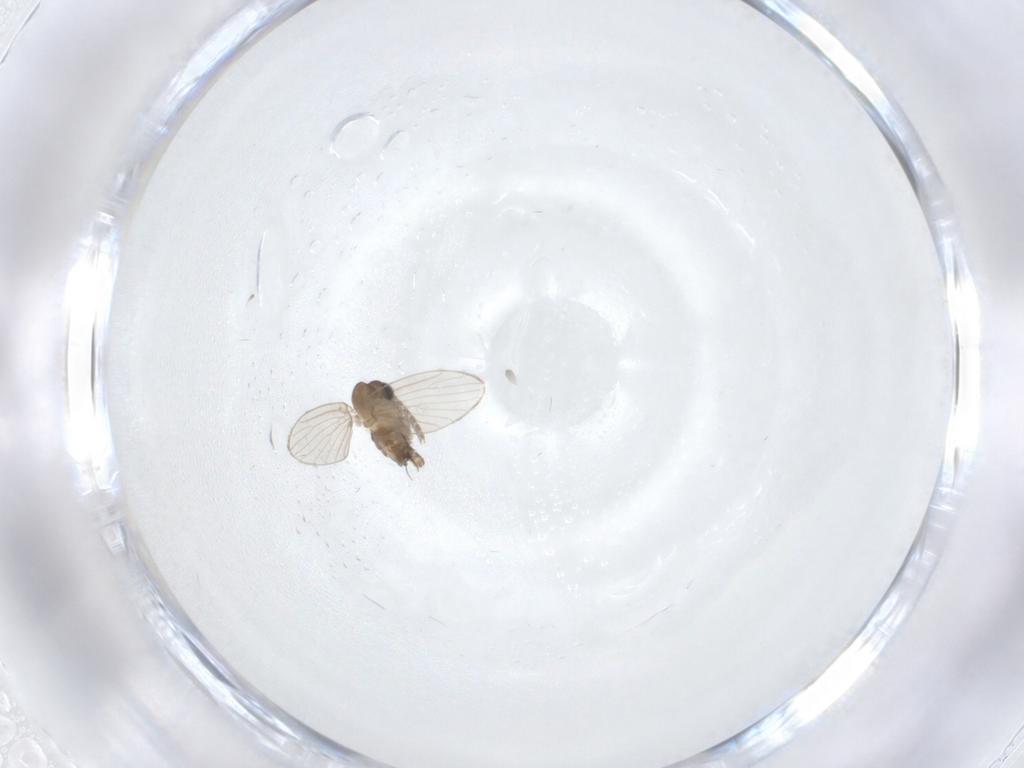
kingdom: Animalia
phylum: Arthropoda
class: Insecta
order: Diptera
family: Ceratopogonidae
